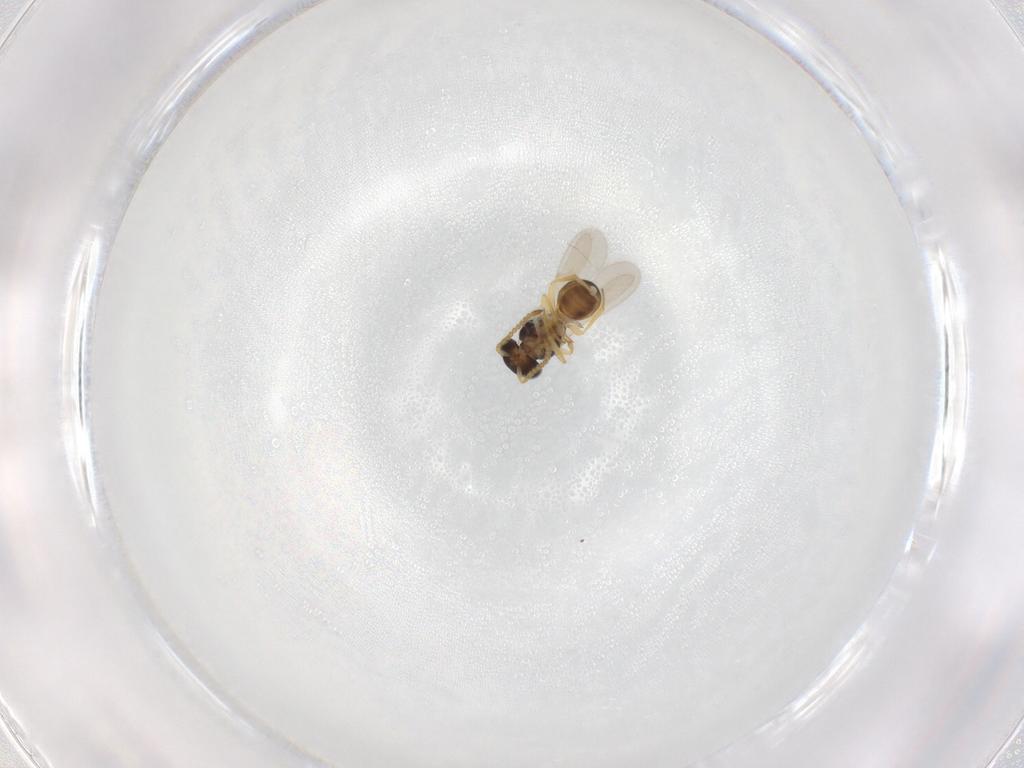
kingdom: Animalia
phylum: Arthropoda
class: Insecta
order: Hymenoptera
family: Scelionidae
